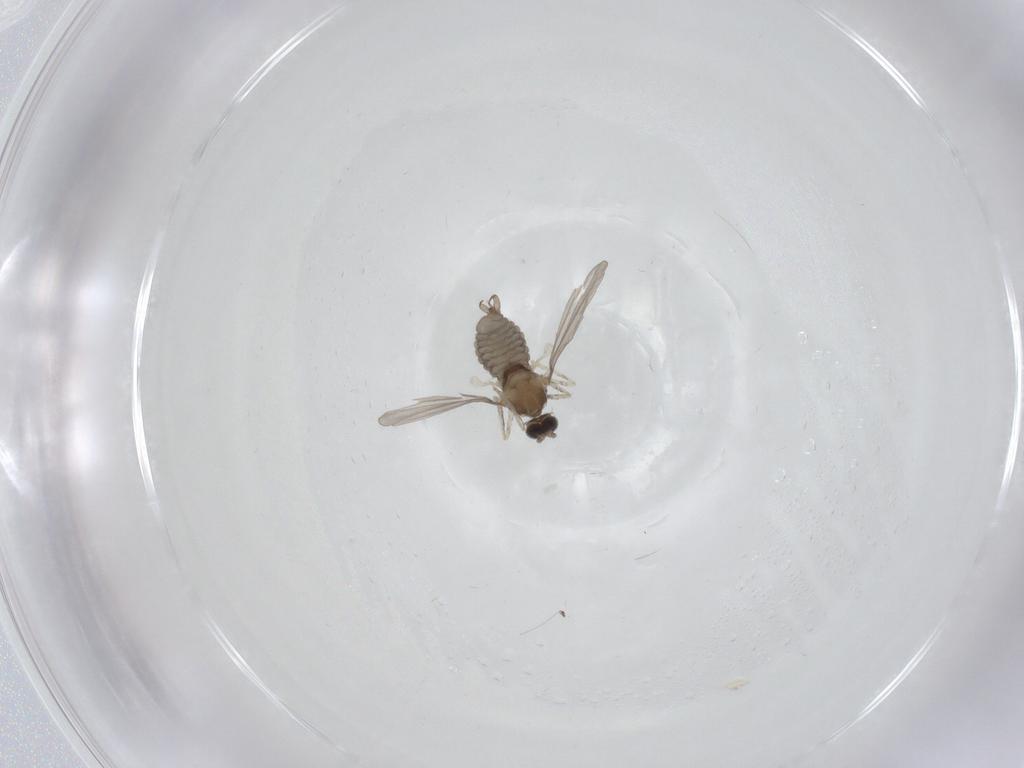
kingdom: Animalia
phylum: Arthropoda
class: Insecta
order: Diptera
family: Cecidomyiidae
